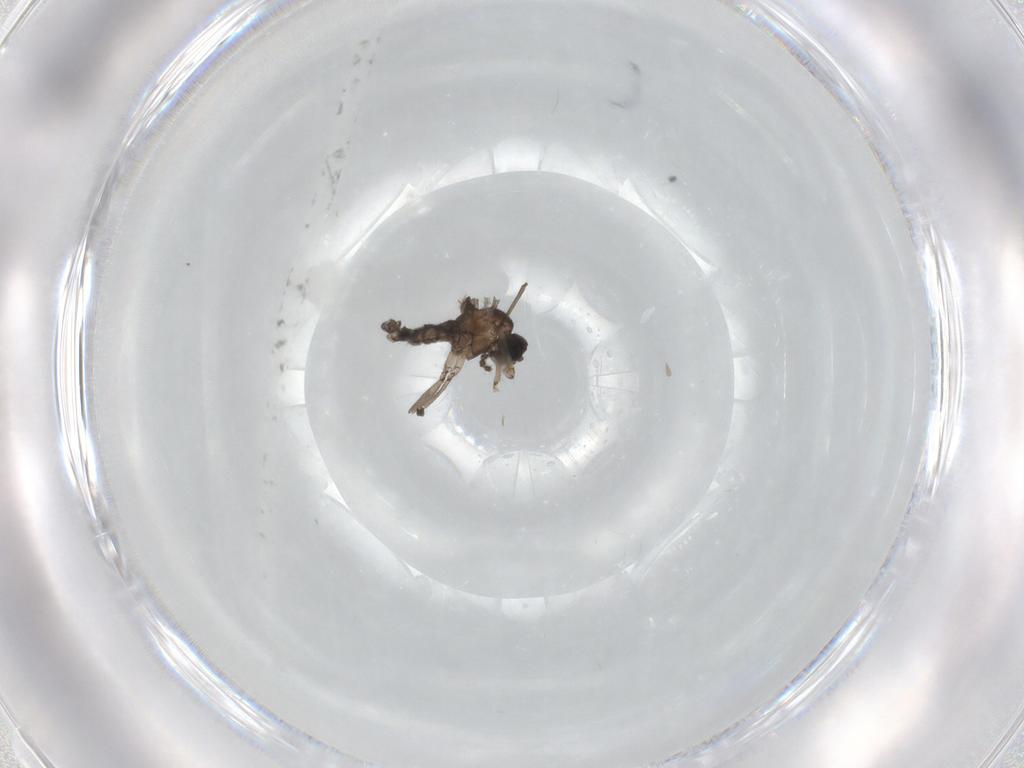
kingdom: Animalia
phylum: Arthropoda
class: Insecta
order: Diptera
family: Chironomidae
